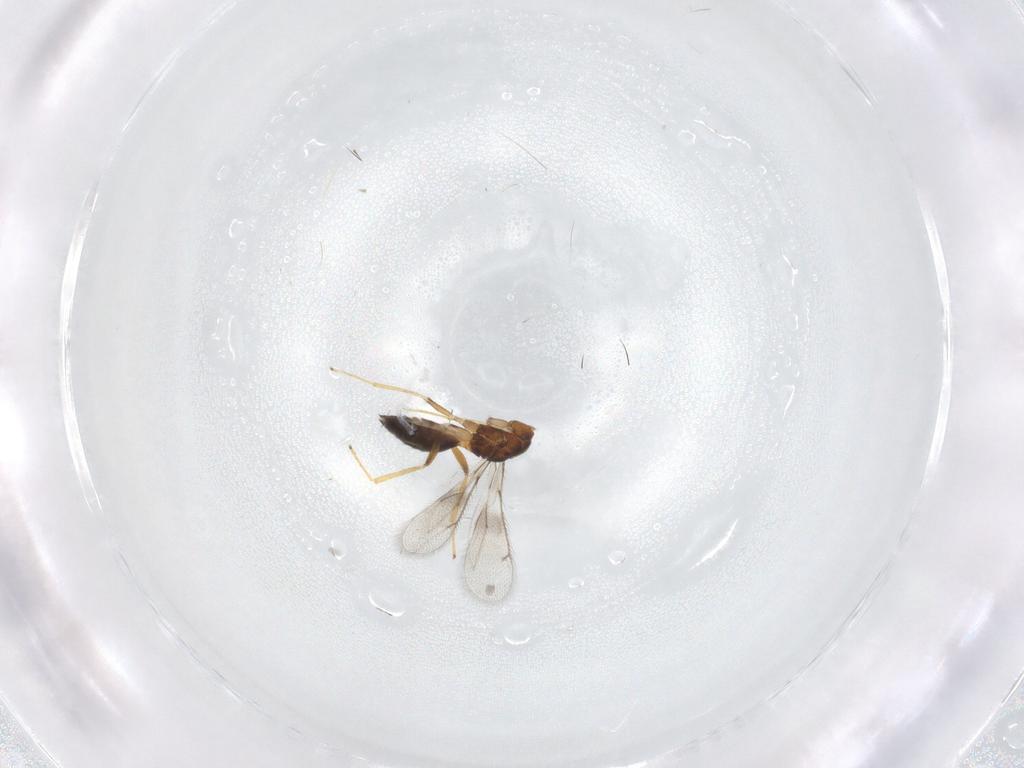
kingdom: Animalia
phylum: Arthropoda
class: Insecta
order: Hymenoptera
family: Eulophidae
